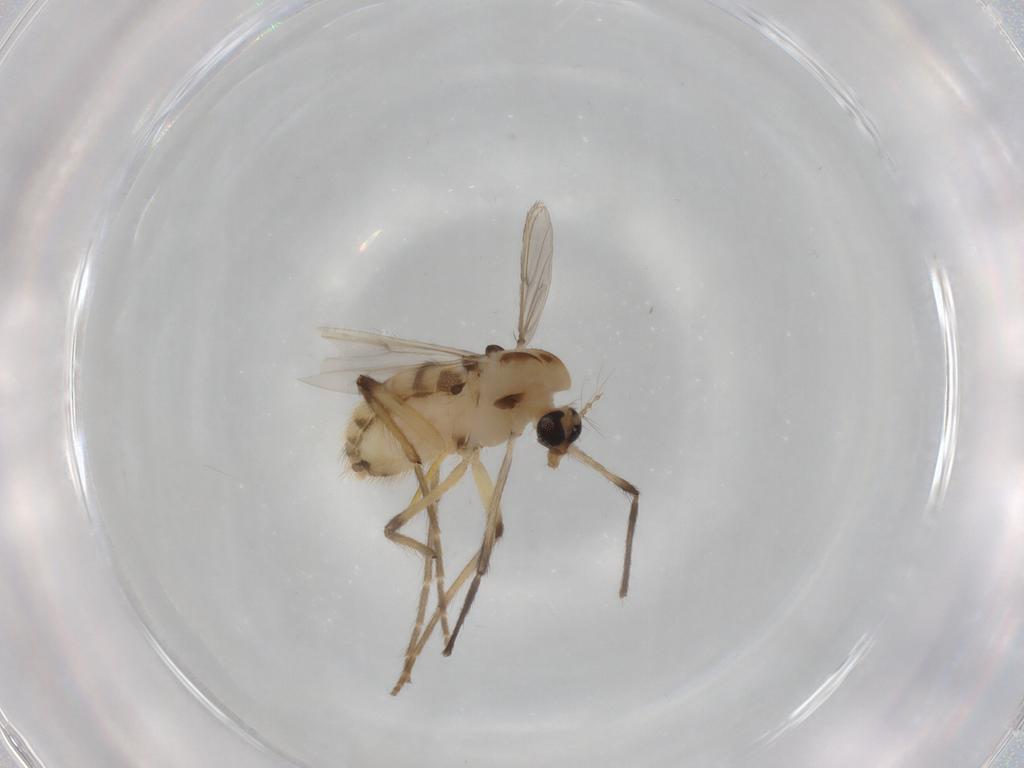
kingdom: Animalia
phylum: Arthropoda
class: Insecta
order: Diptera
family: Chironomidae
